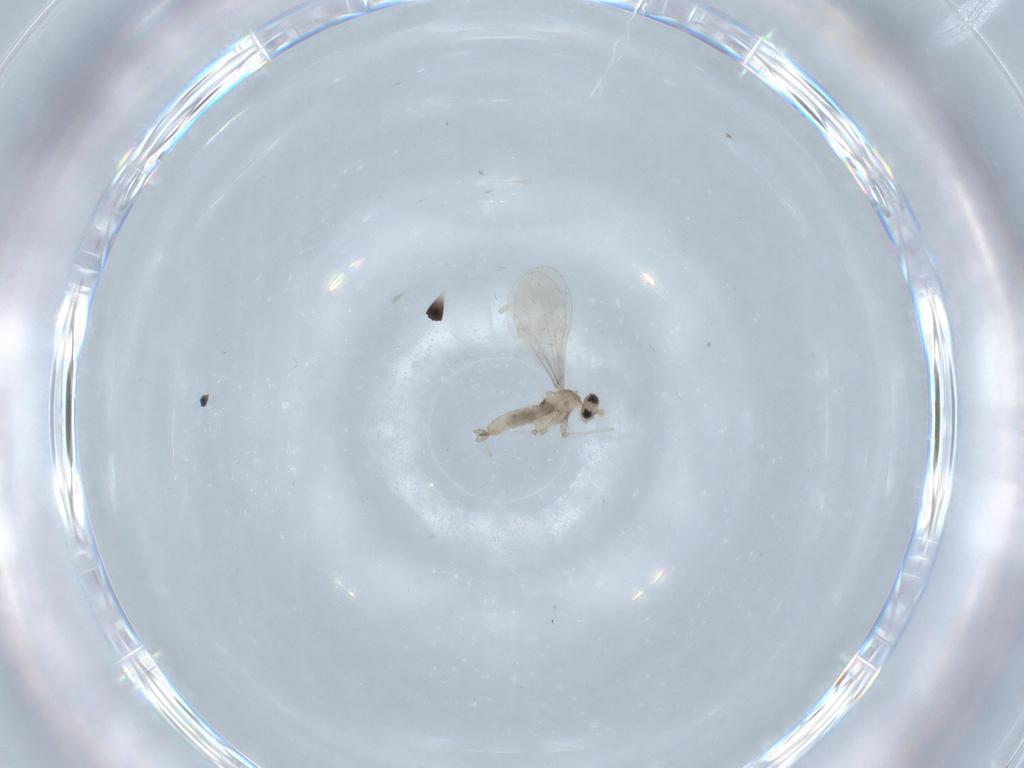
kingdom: Animalia
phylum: Arthropoda
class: Insecta
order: Diptera
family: Cecidomyiidae
